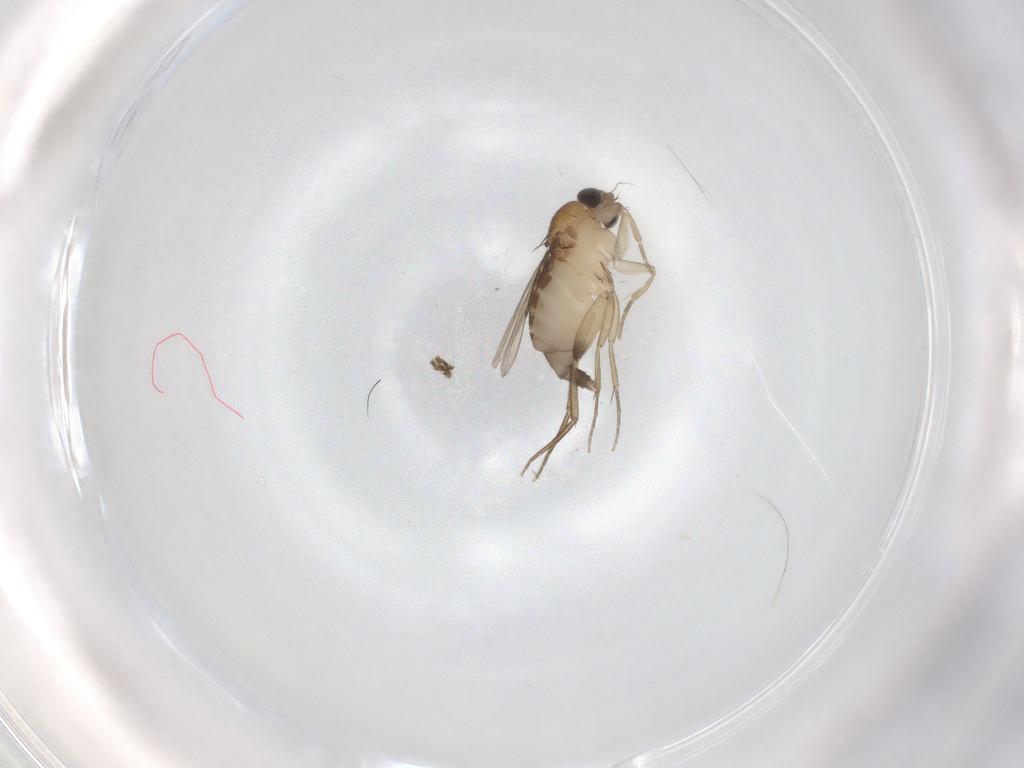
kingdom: Animalia
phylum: Arthropoda
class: Insecta
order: Diptera
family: Phoridae
